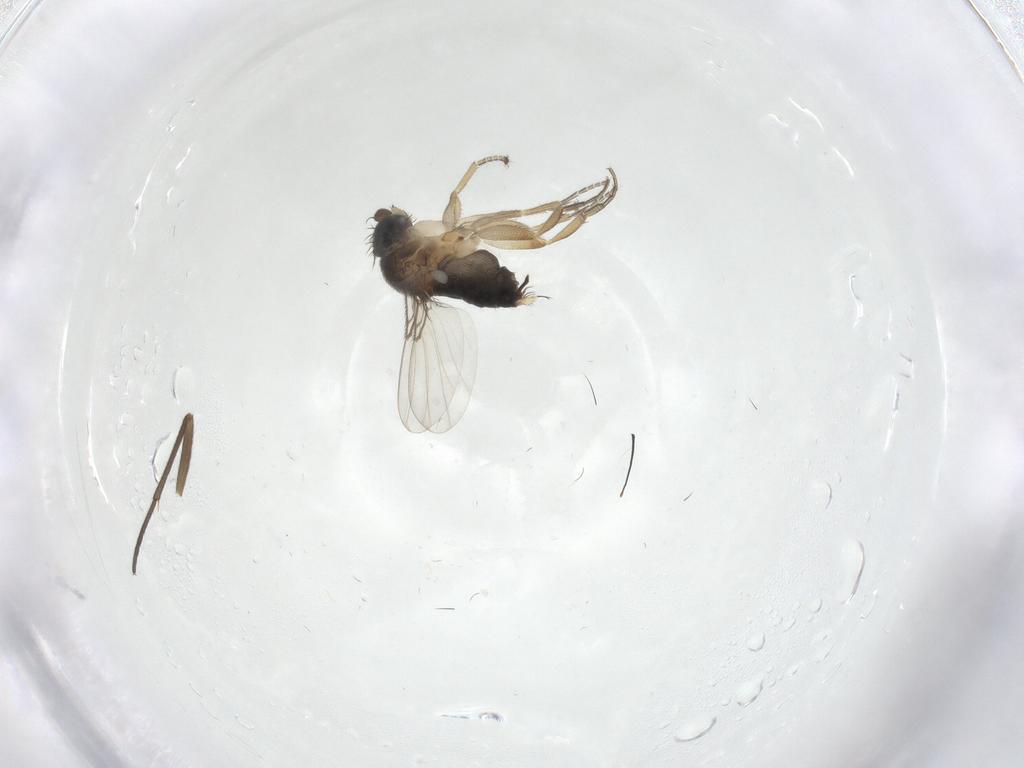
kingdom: Animalia
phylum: Arthropoda
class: Insecta
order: Diptera
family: Phoridae
